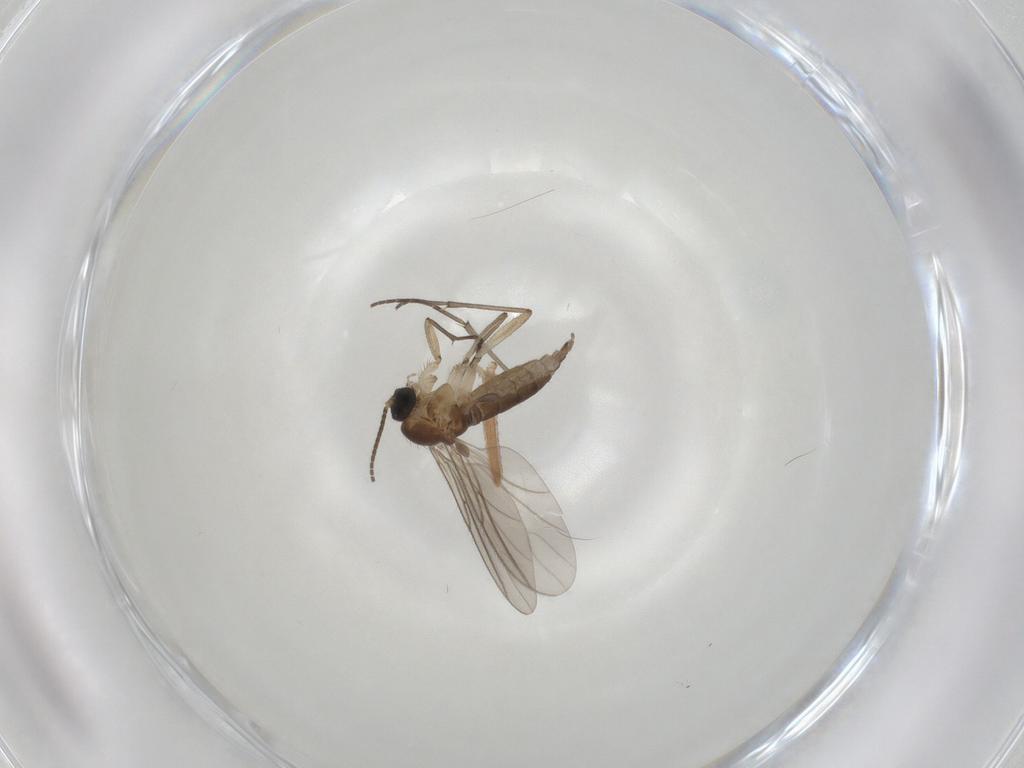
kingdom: Animalia
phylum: Arthropoda
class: Insecta
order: Diptera
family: Sciaridae
